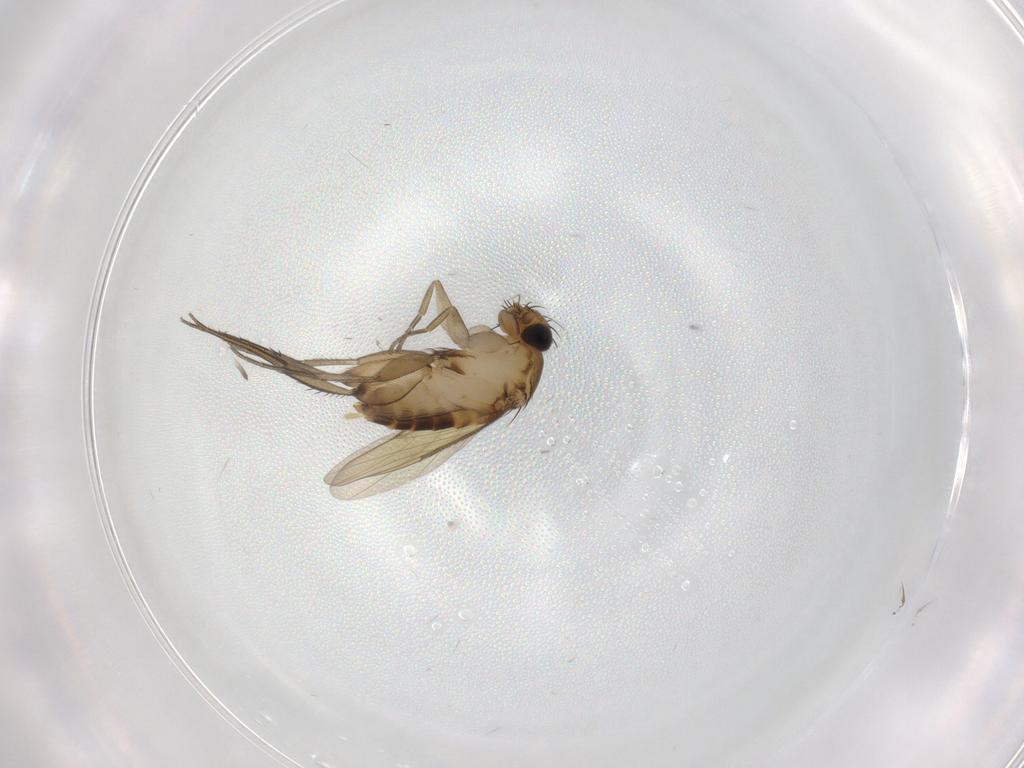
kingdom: Animalia
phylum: Arthropoda
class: Insecta
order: Diptera
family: Phoridae
